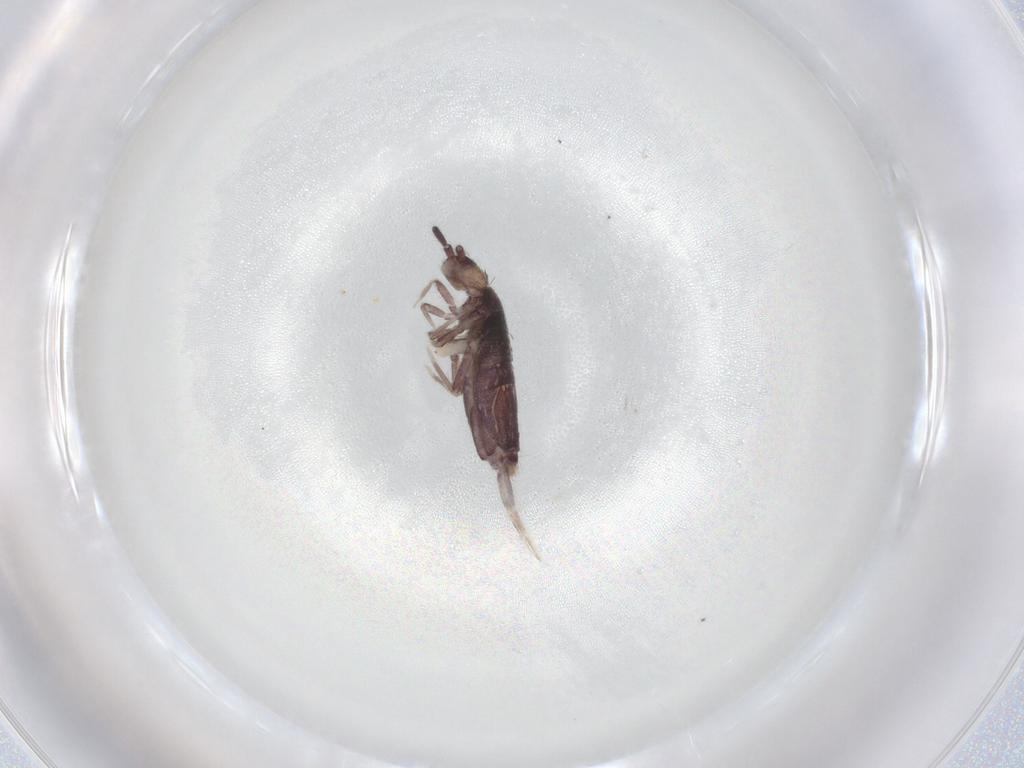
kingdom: Animalia
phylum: Arthropoda
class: Collembola
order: Entomobryomorpha
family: Entomobryidae
